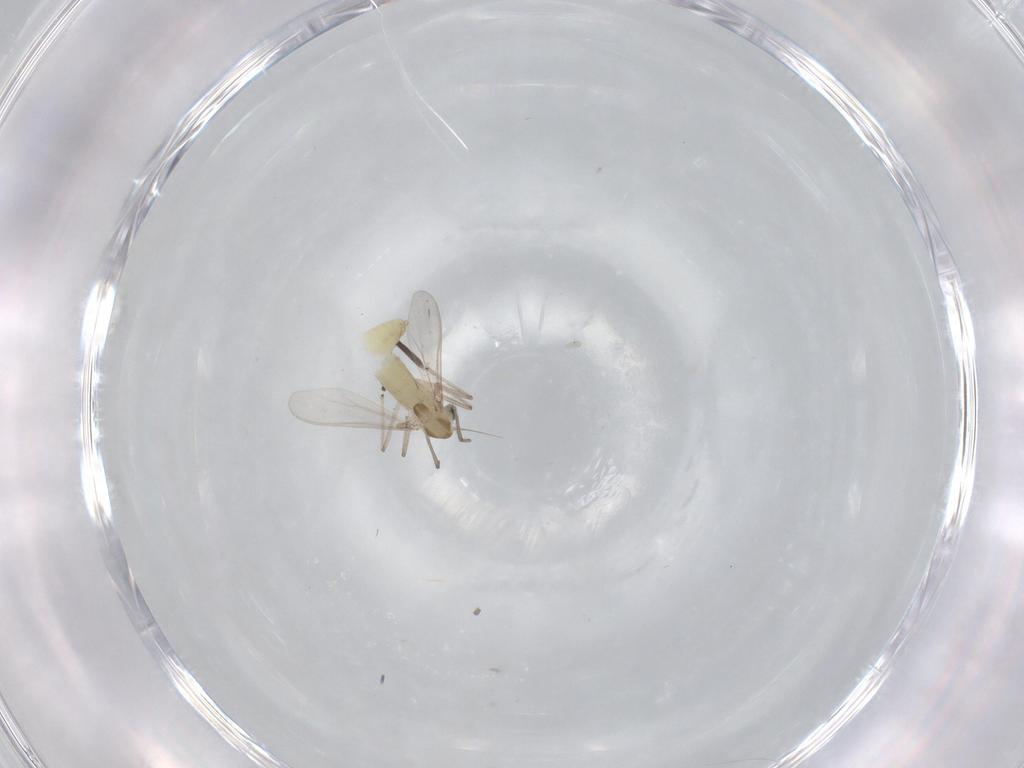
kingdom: Animalia
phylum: Arthropoda
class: Insecta
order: Diptera
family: Chironomidae
